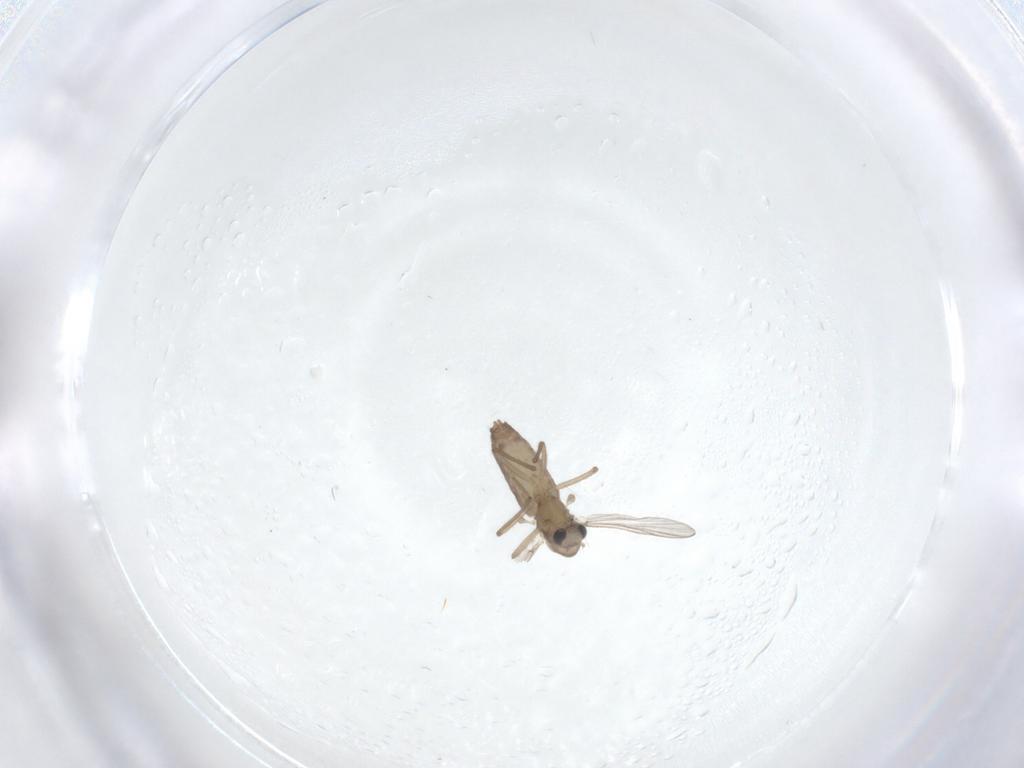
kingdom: Animalia
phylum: Arthropoda
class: Insecta
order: Diptera
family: Chironomidae
